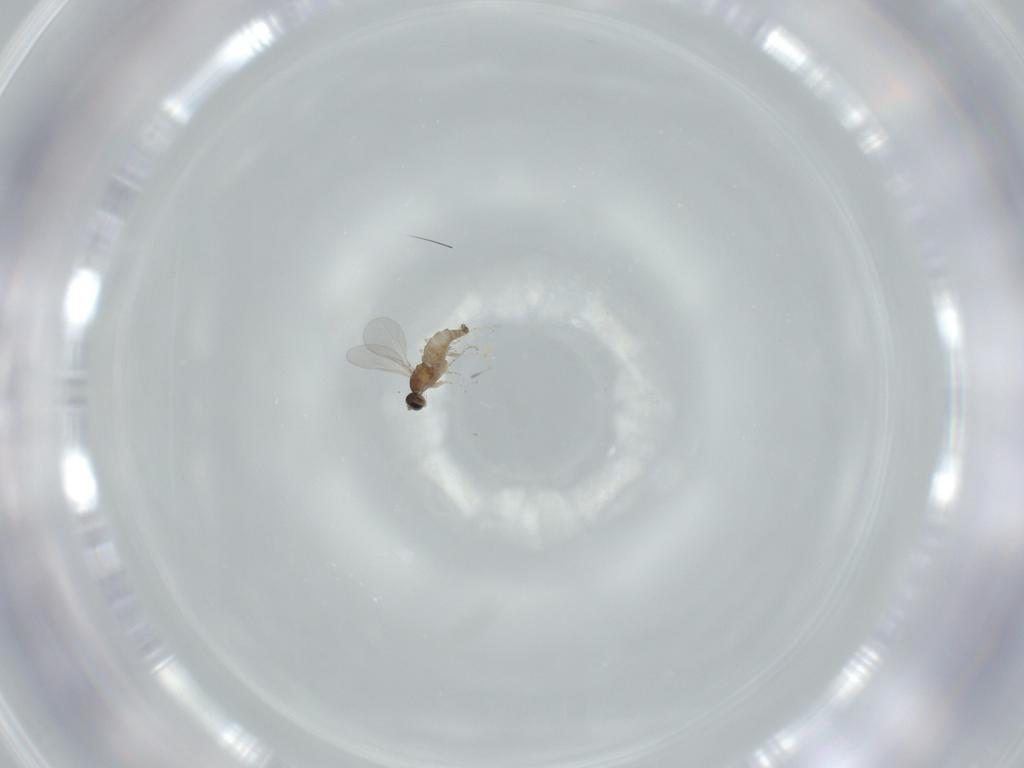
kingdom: Animalia
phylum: Arthropoda
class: Insecta
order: Diptera
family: Cecidomyiidae
